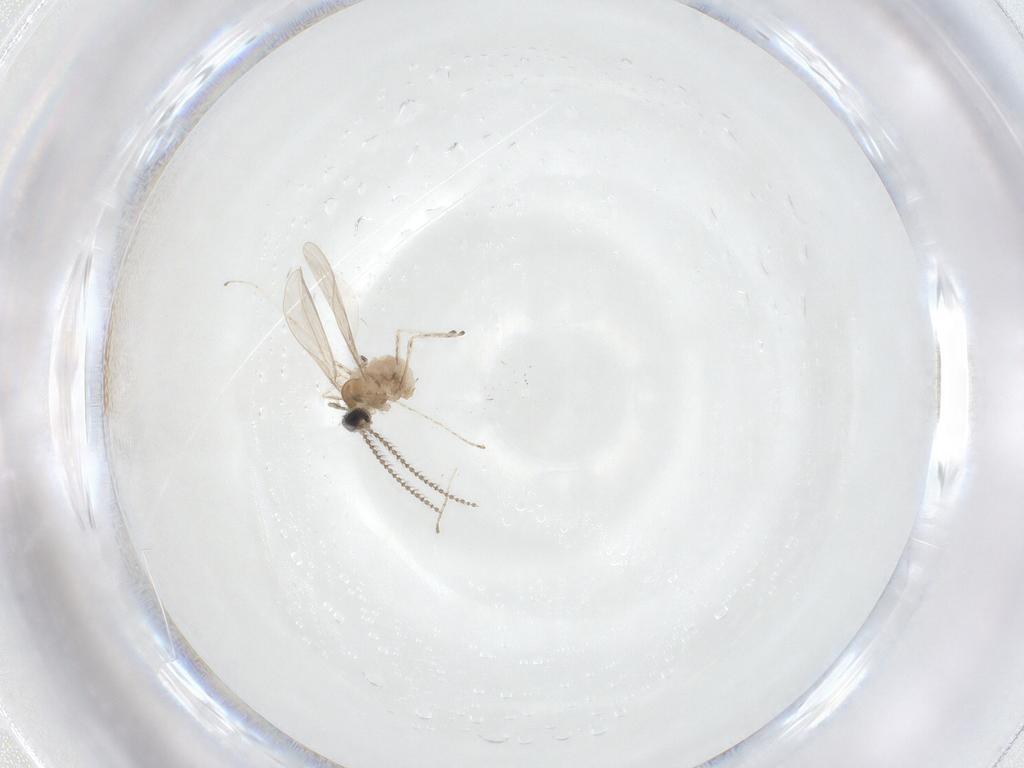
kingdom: Animalia
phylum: Arthropoda
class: Insecta
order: Diptera
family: Cecidomyiidae
